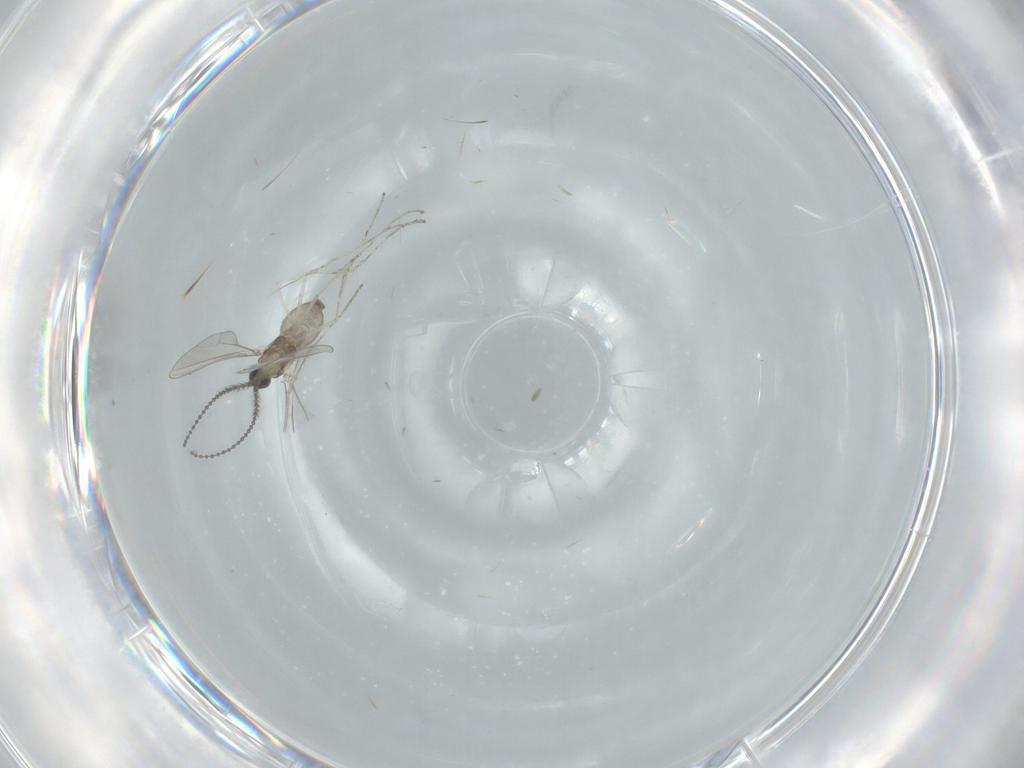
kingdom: Animalia
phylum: Arthropoda
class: Insecta
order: Diptera
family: Cecidomyiidae
